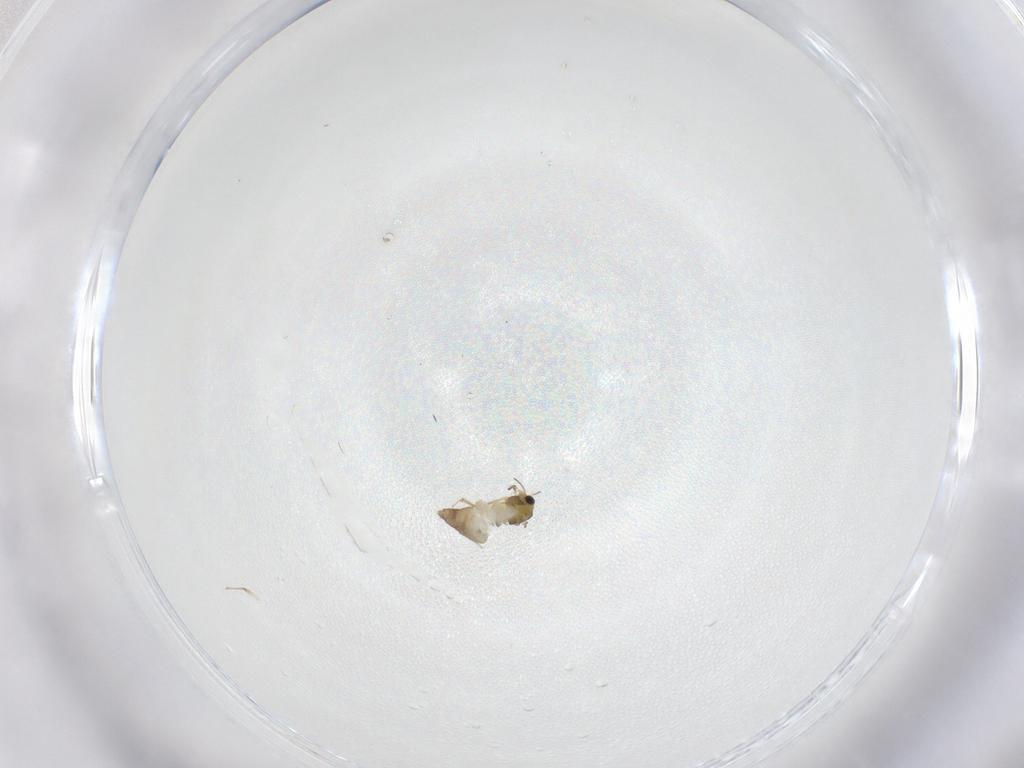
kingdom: Animalia
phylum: Arthropoda
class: Insecta
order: Diptera
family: Chironomidae
